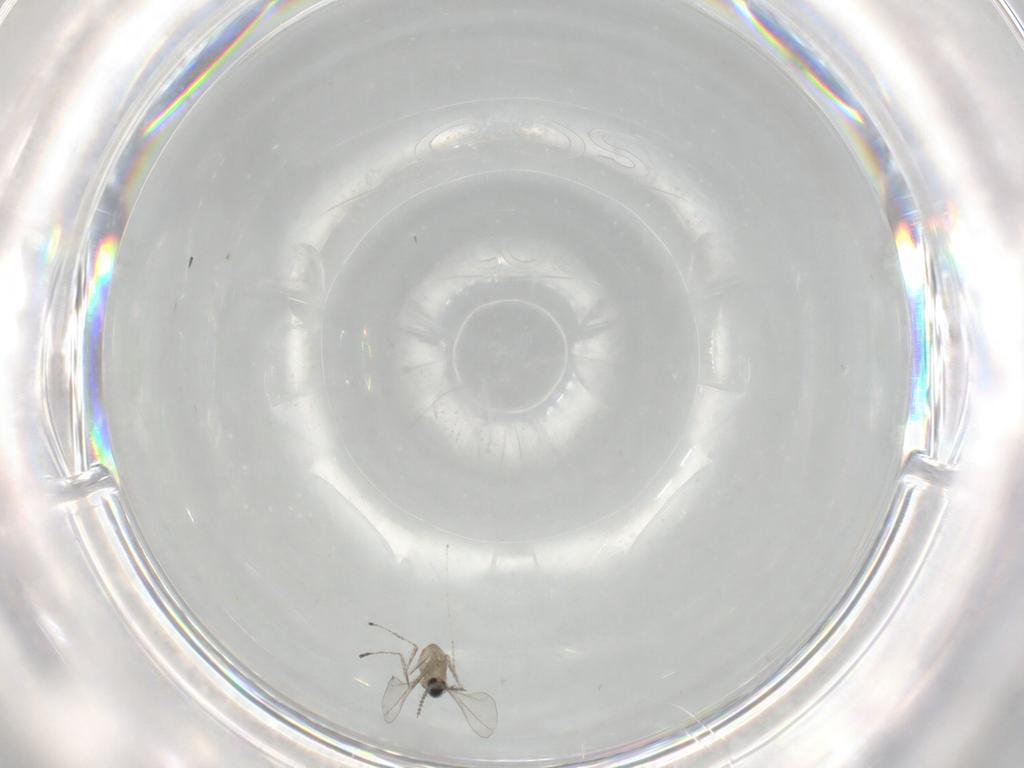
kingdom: Animalia
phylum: Arthropoda
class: Insecta
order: Diptera
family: Cecidomyiidae
